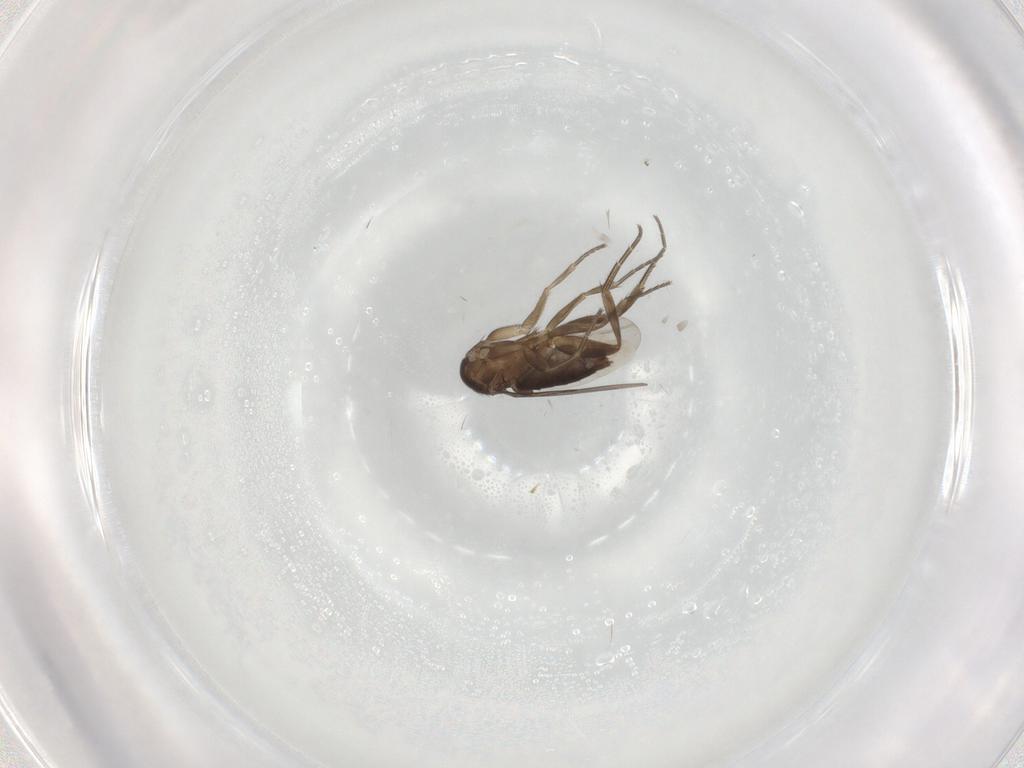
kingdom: Animalia
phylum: Arthropoda
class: Insecta
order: Diptera
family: Phoridae
